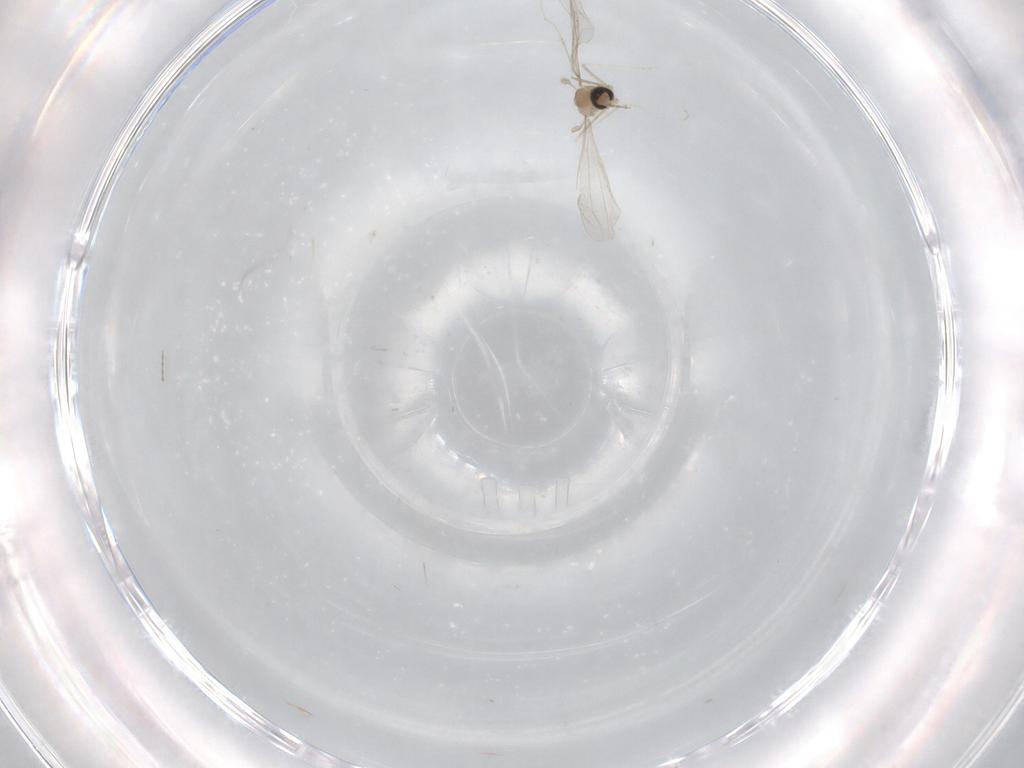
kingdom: Animalia
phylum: Arthropoda
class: Insecta
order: Diptera
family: Cecidomyiidae
